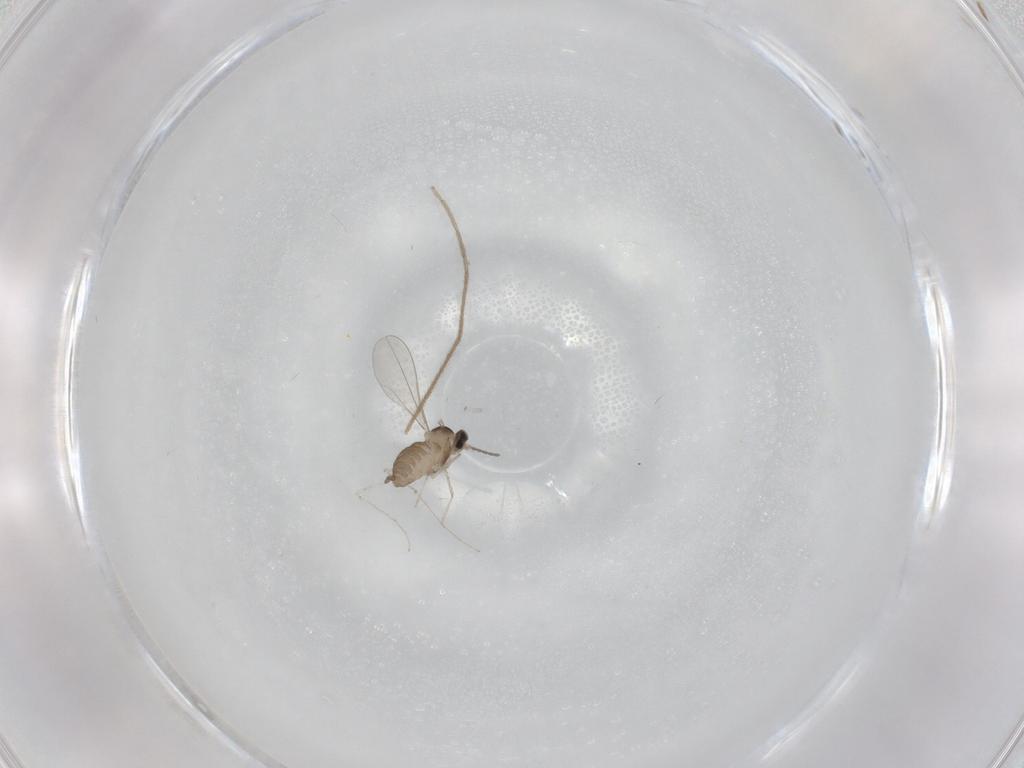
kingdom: Animalia
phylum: Arthropoda
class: Insecta
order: Diptera
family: Cecidomyiidae
